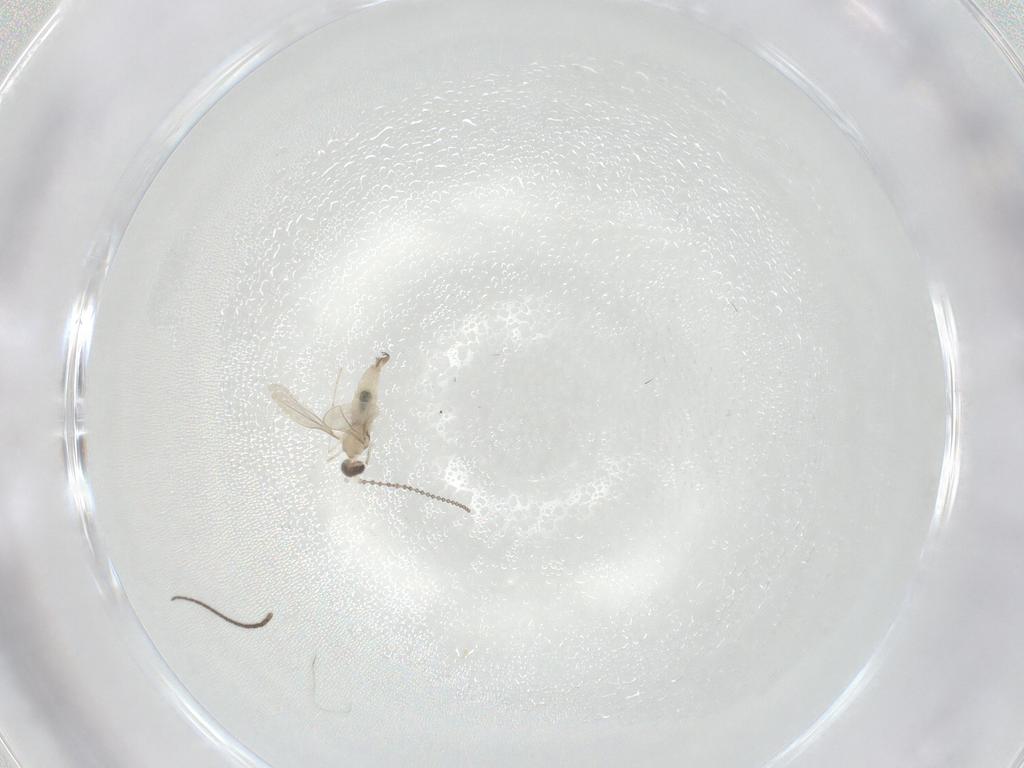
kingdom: Animalia
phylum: Arthropoda
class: Insecta
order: Diptera
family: Cecidomyiidae
